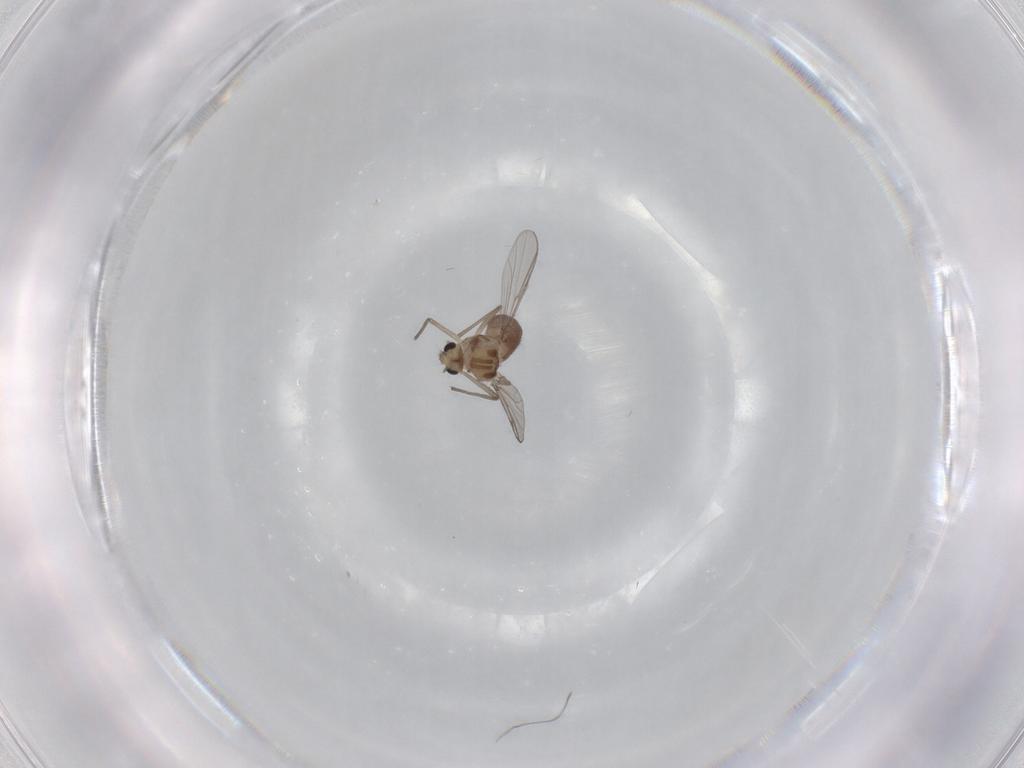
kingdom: Animalia
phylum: Arthropoda
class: Insecta
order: Diptera
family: Chironomidae
